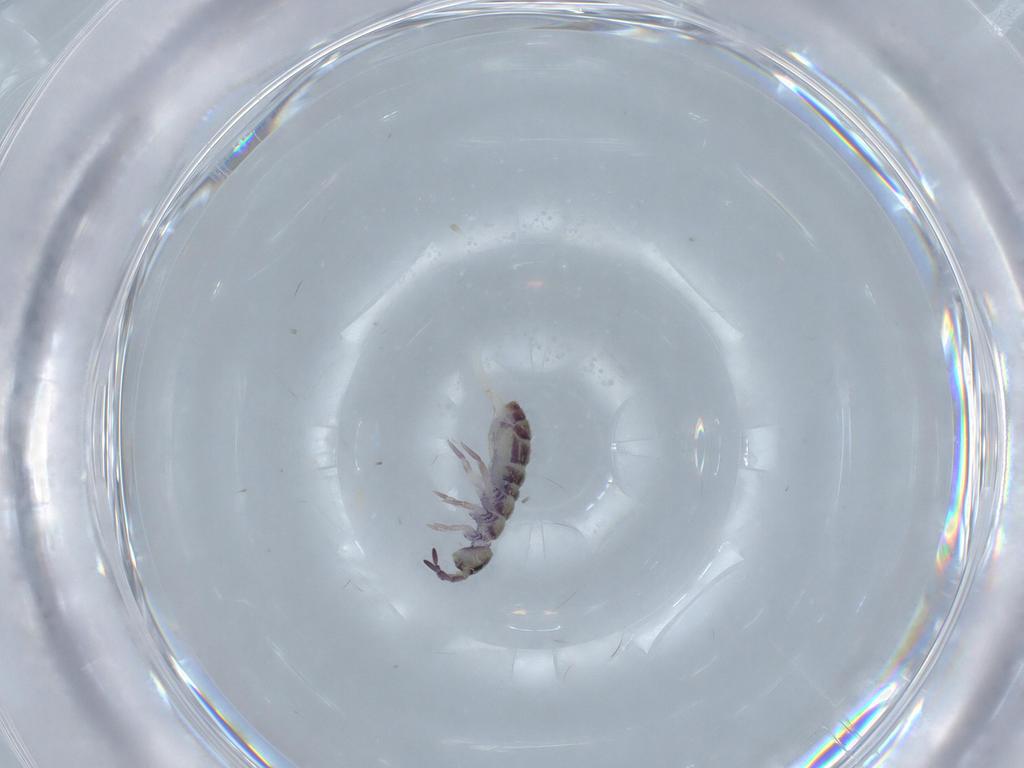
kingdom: Animalia
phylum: Arthropoda
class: Collembola
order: Entomobryomorpha
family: Isotomidae
